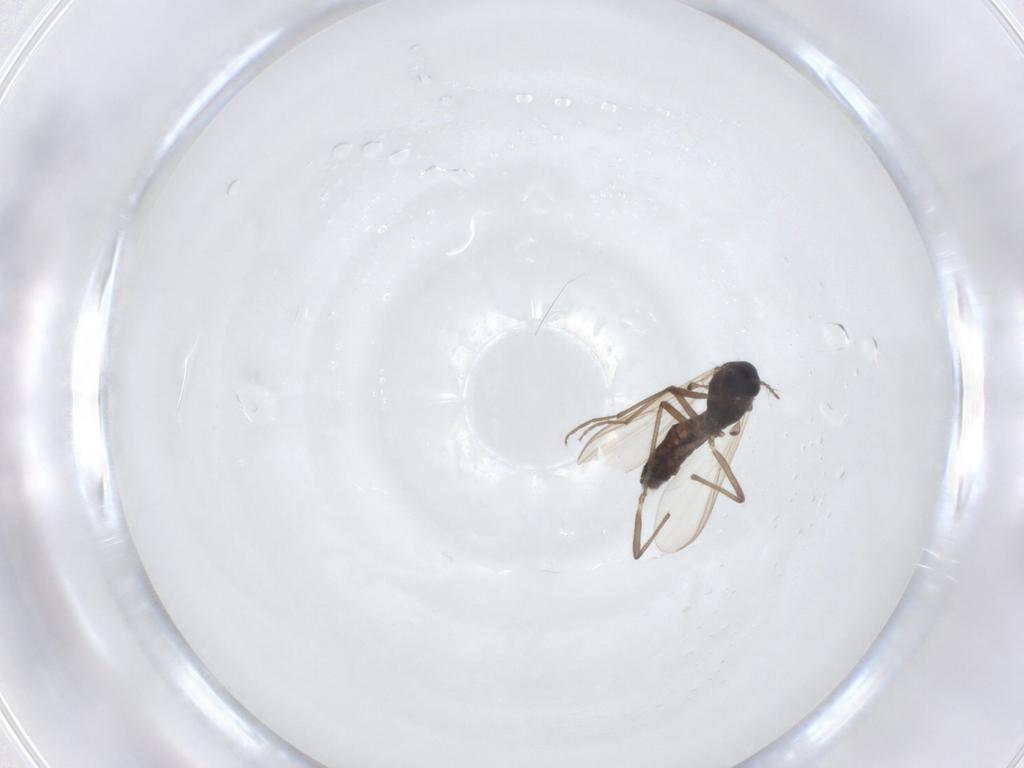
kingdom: Animalia
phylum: Arthropoda
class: Insecta
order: Diptera
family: Chironomidae
